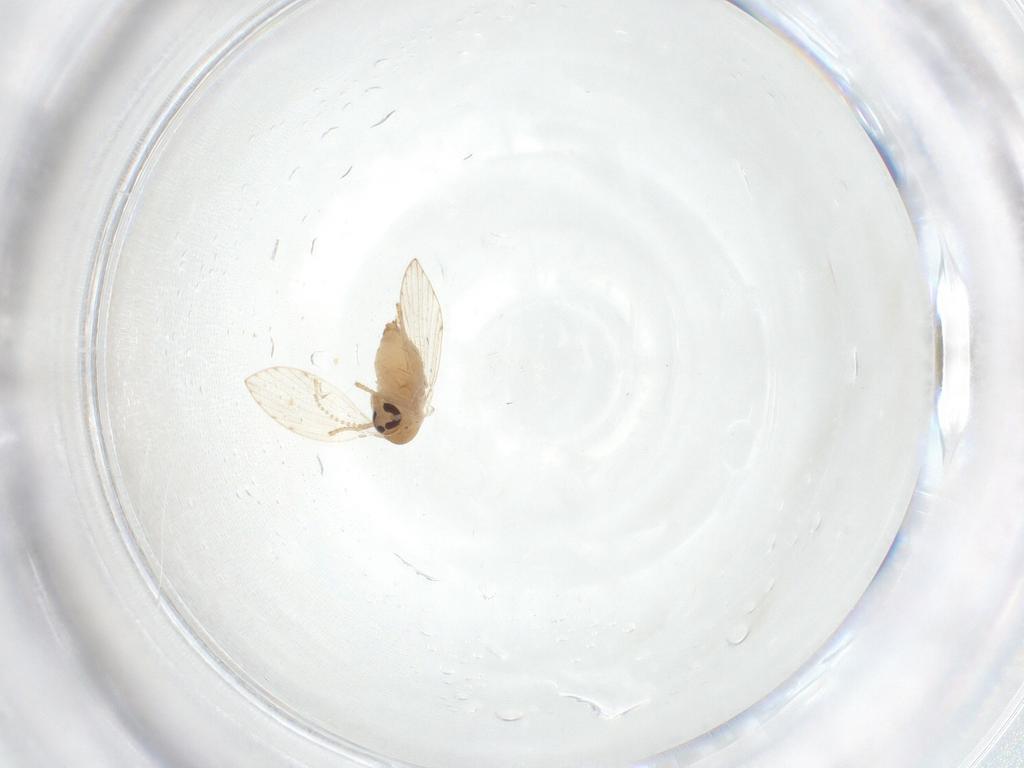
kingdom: Animalia
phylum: Arthropoda
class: Insecta
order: Diptera
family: Psychodidae
